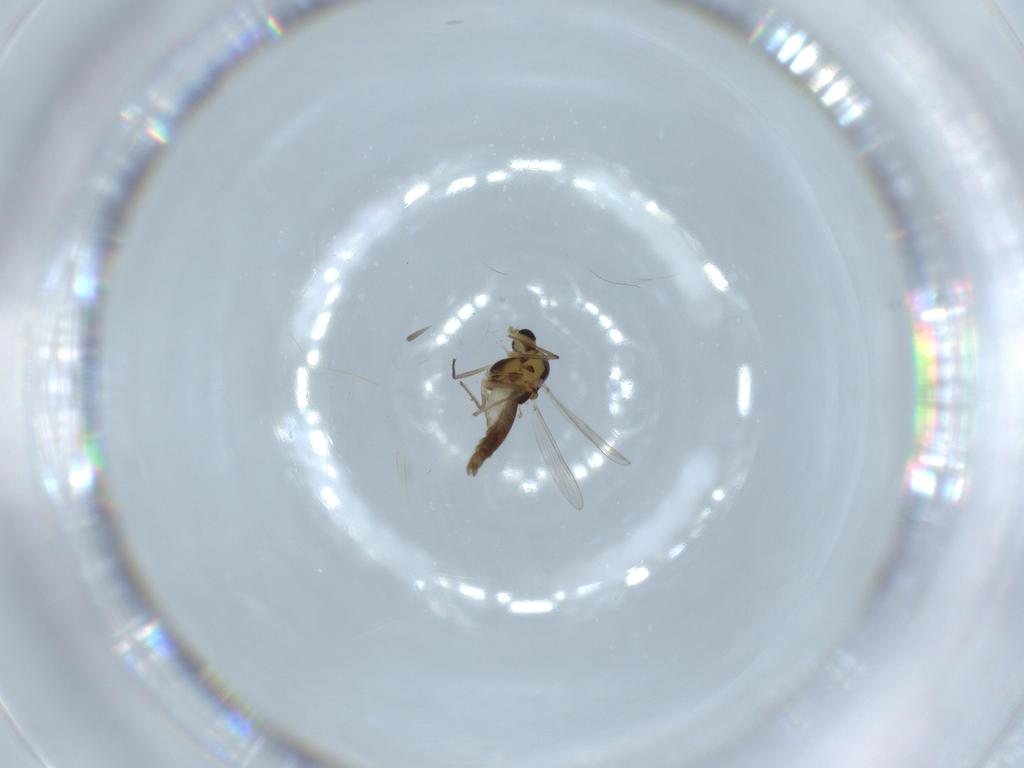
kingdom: Animalia
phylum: Arthropoda
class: Insecta
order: Diptera
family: Chironomidae
